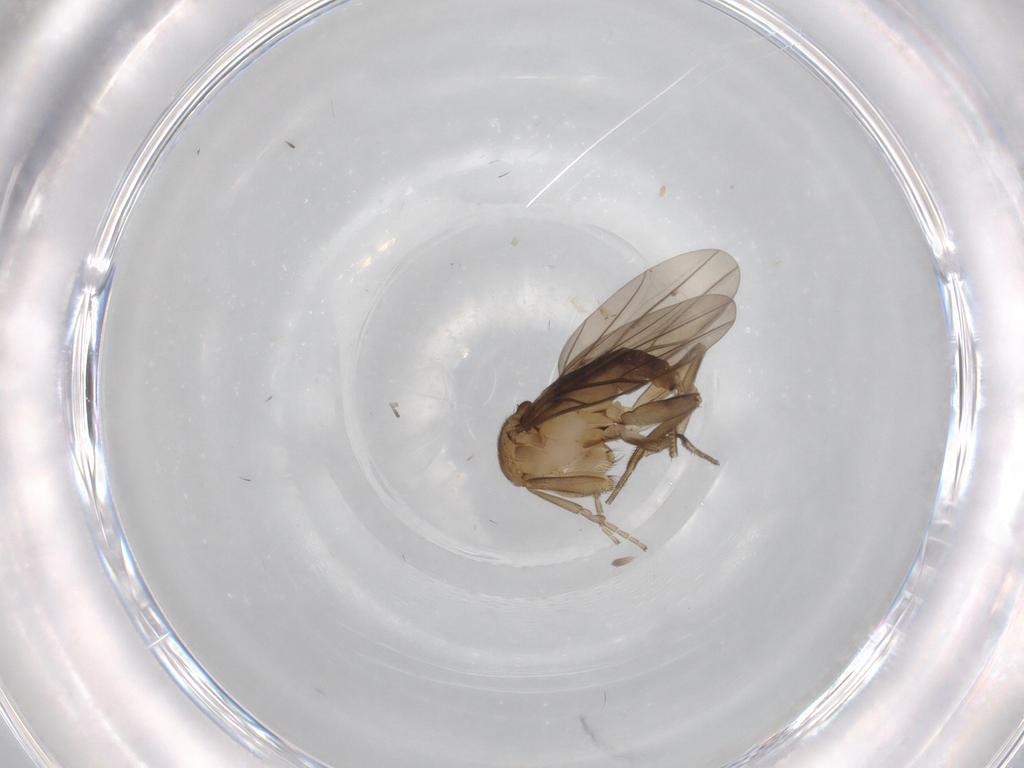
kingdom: Animalia
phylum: Arthropoda
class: Insecta
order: Diptera
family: Phoridae
